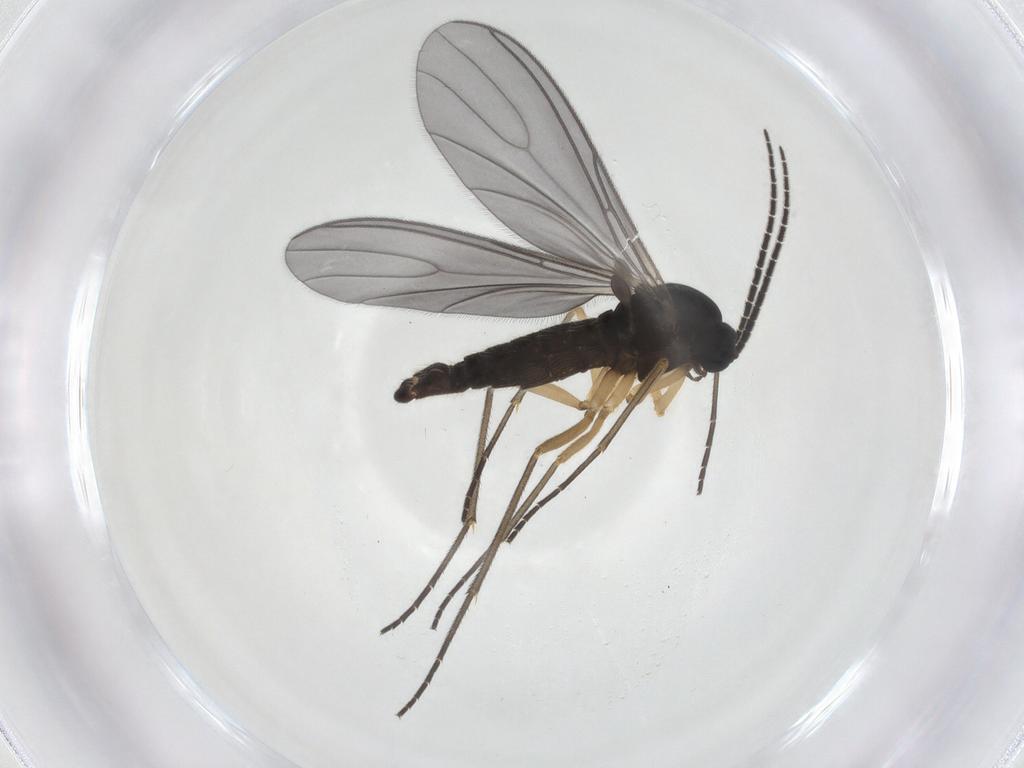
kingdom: Animalia
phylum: Arthropoda
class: Insecta
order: Diptera
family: Sciaridae
